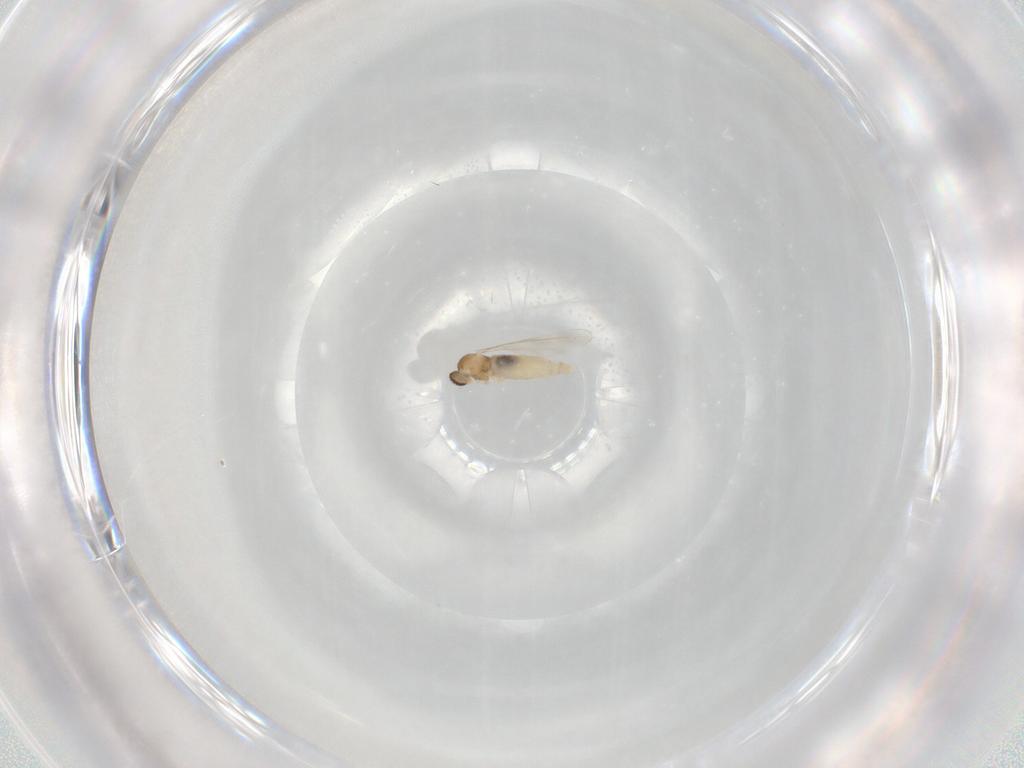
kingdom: Animalia
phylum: Arthropoda
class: Insecta
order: Diptera
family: Cecidomyiidae
